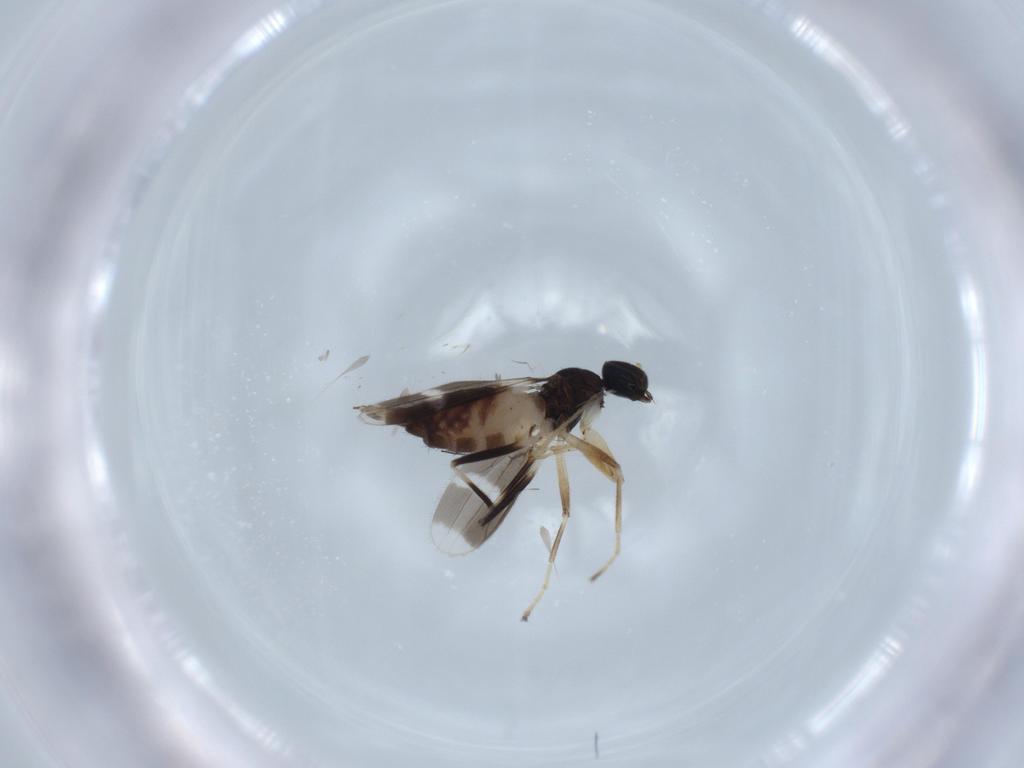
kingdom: Animalia
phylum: Arthropoda
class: Insecta
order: Diptera
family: Hybotidae
